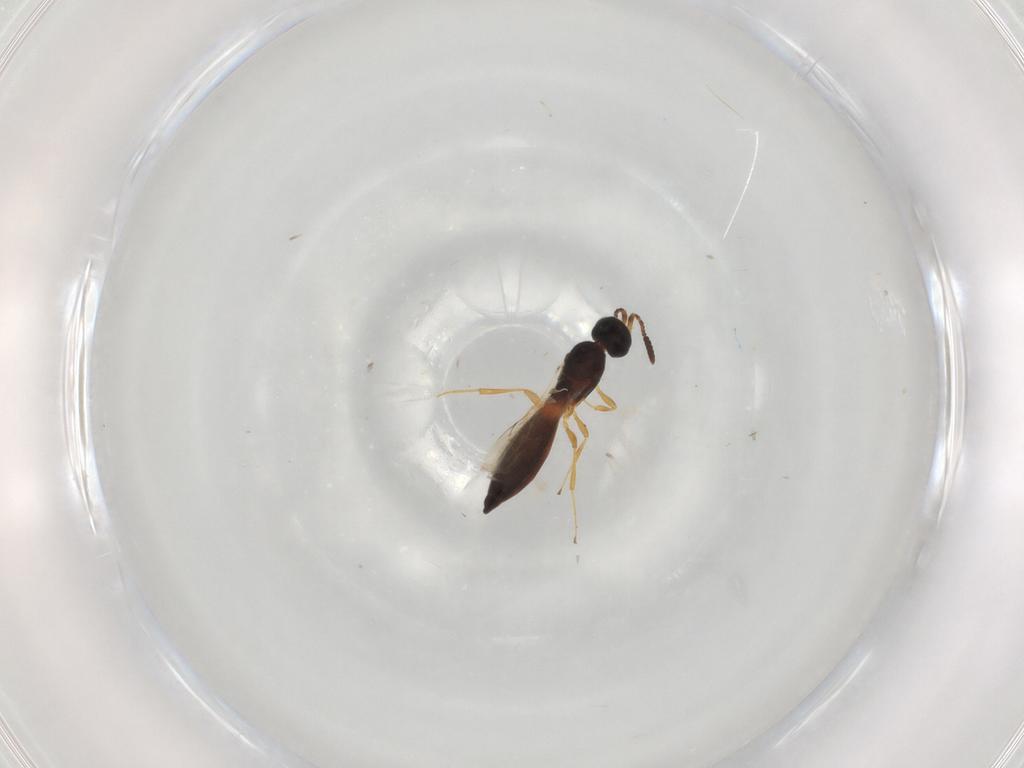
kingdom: Animalia
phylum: Arthropoda
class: Insecta
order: Hymenoptera
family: Scelionidae
